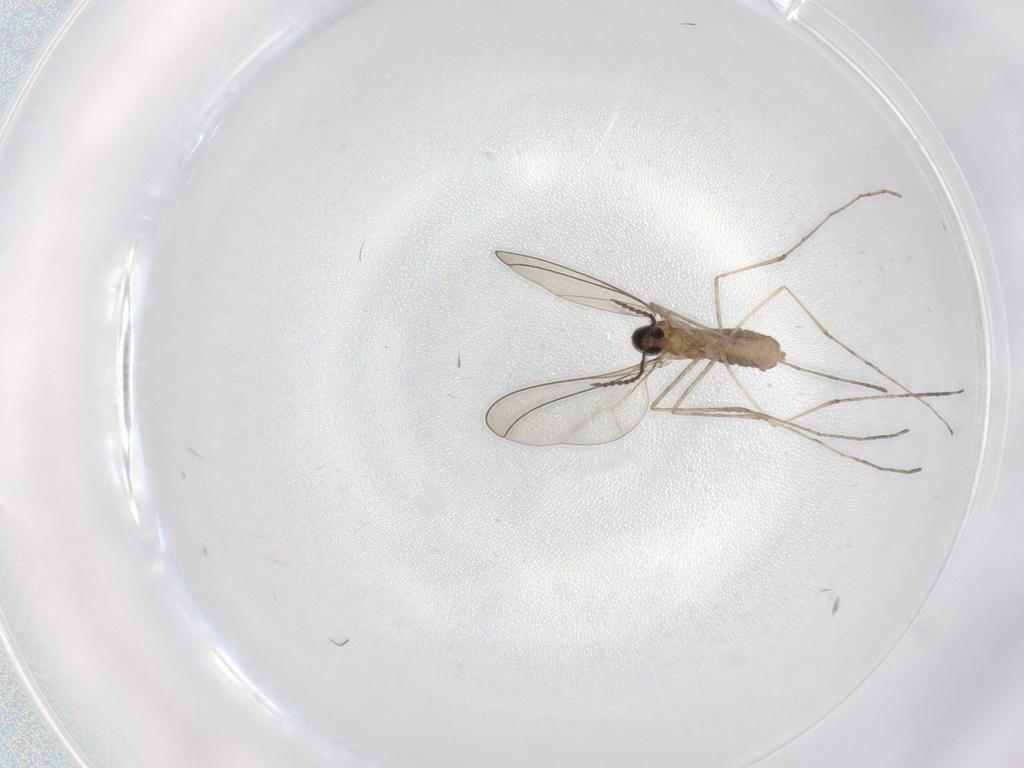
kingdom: Animalia
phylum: Arthropoda
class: Insecta
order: Diptera
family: Cecidomyiidae
